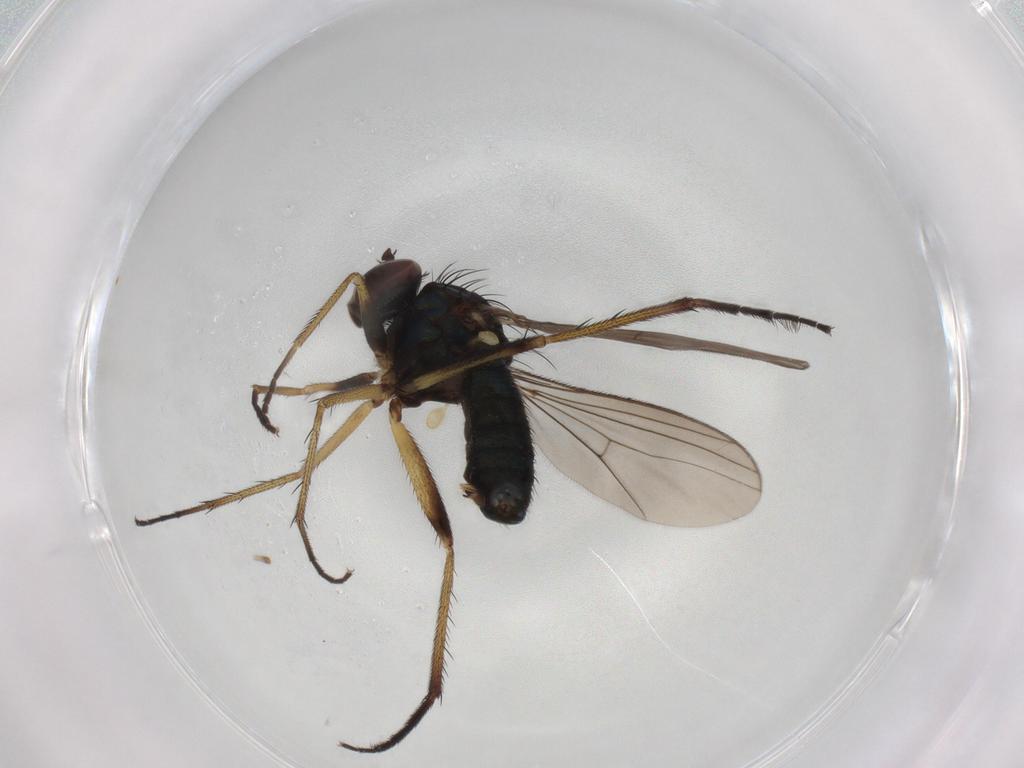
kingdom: Animalia
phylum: Arthropoda
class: Insecta
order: Diptera
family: Dolichopodidae
